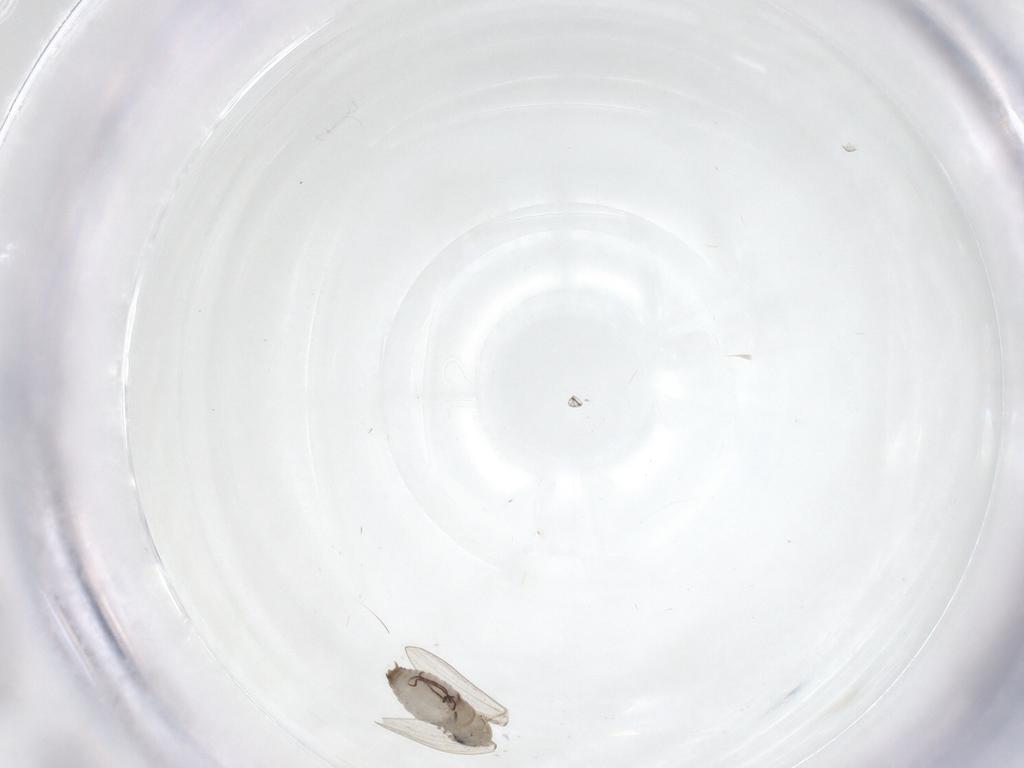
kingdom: Animalia
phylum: Arthropoda
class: Insecta
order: Diptera
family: Psychodidae
